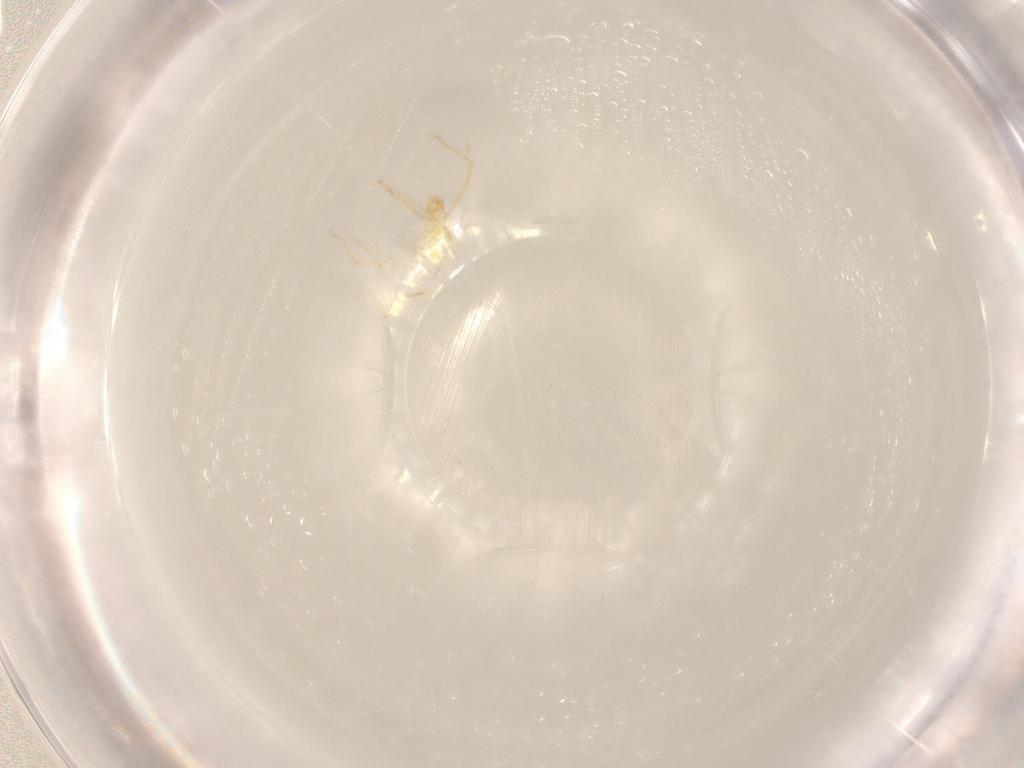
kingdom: Animalia
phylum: Arthropoda
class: Arachnida
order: Trombidiformes
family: Erythraeidae
